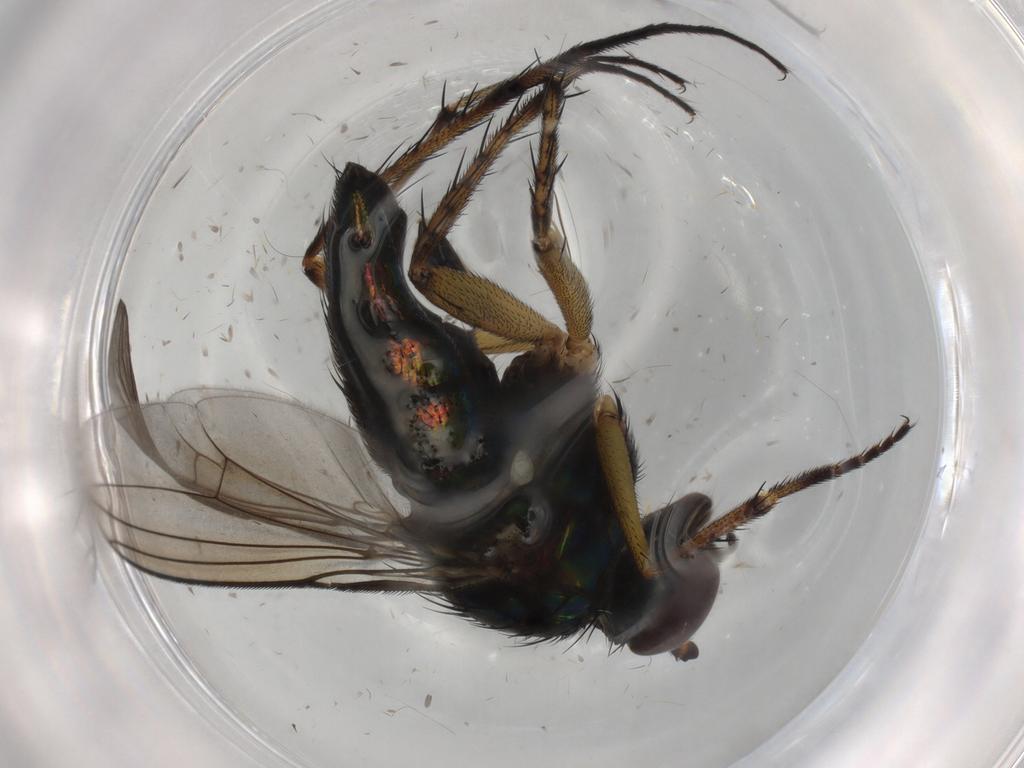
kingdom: Animalia
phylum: Arthropoda
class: Insecta
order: Diptera
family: Dolichopodidae
